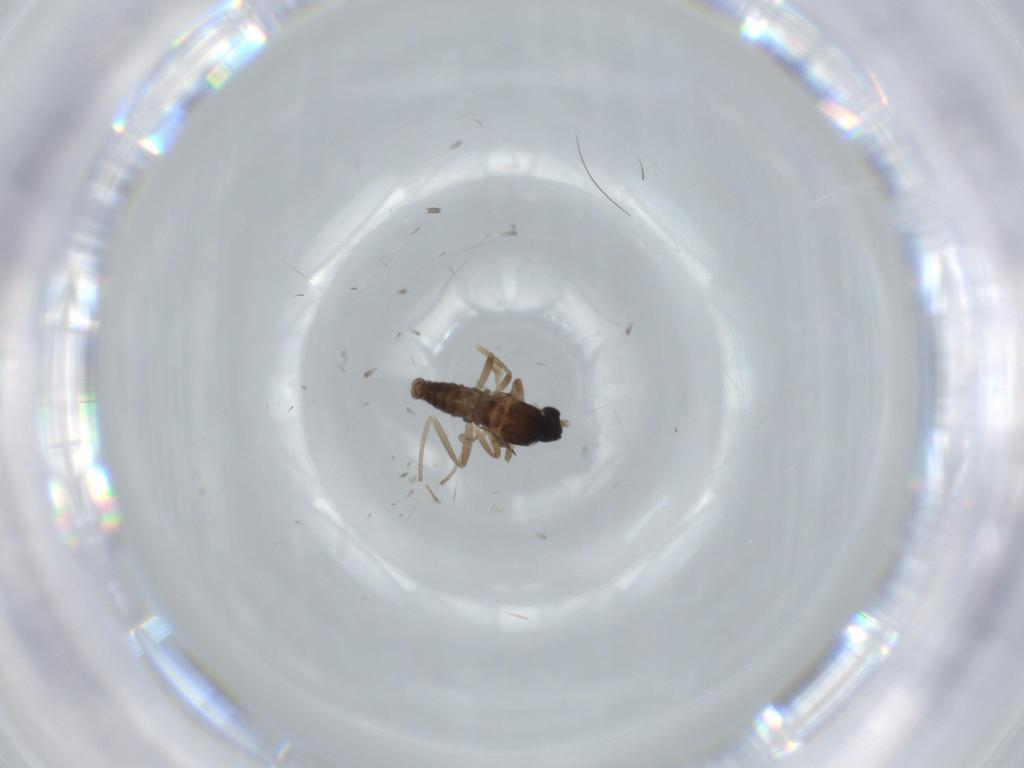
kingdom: Animalia
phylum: Arthropoda
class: Insecta
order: Diptera
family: Cecidomyiidae
